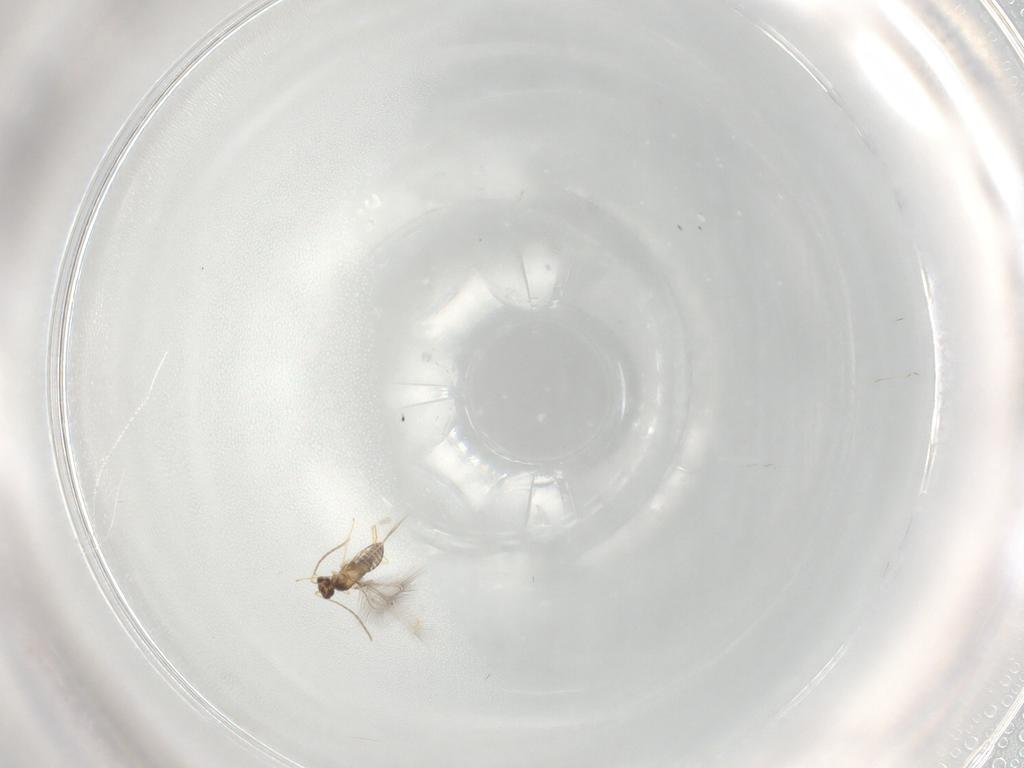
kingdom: Animalia
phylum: Arthropoda
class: Insecta
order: Hymenoptera
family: Mymaridae
